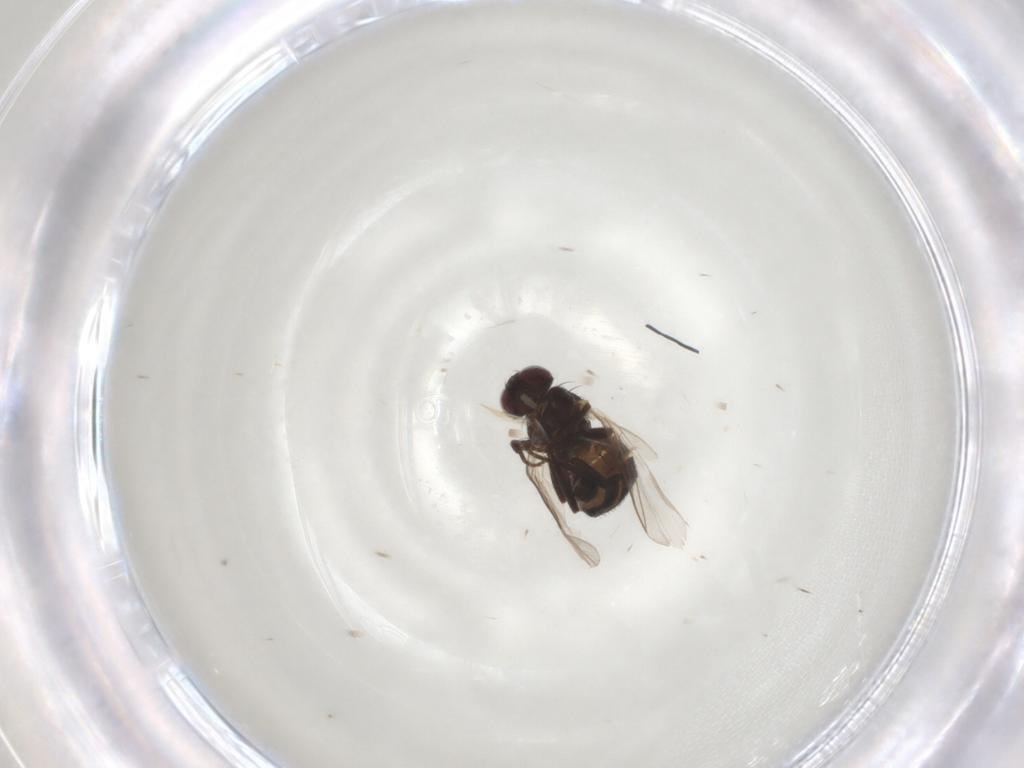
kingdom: Animalia
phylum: Arthropoda
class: Insecta
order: Diptera
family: Agromyzidae
